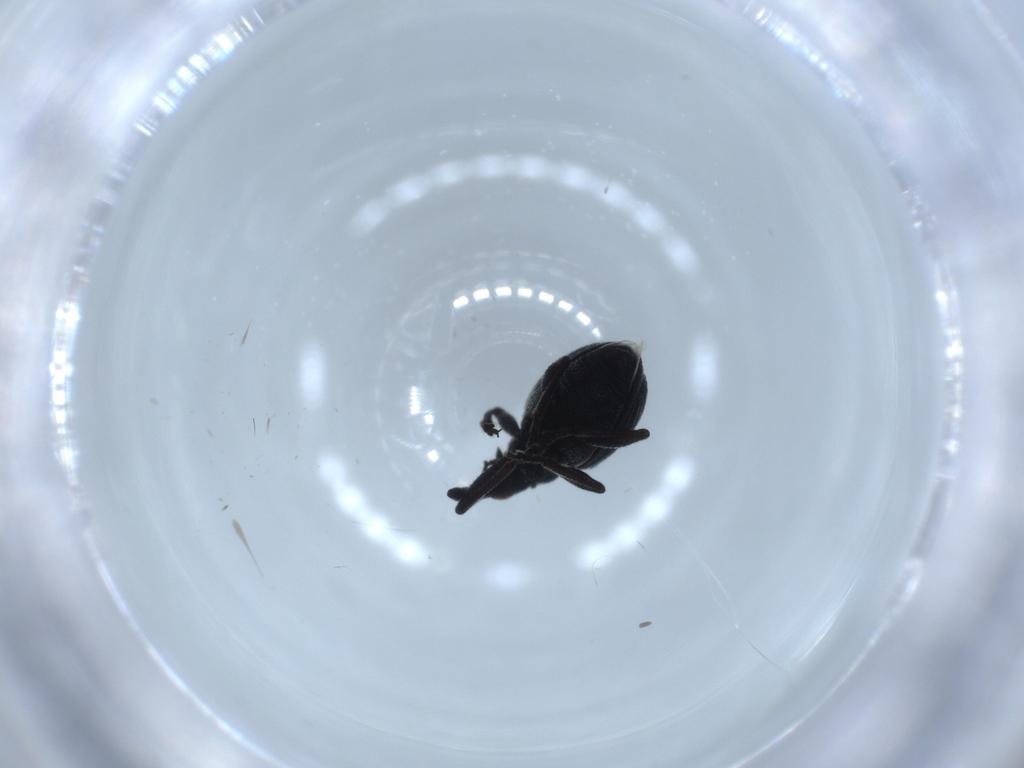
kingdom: Animalia
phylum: Arthropoda
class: Insecta
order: Coleoptera
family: Brentidae
